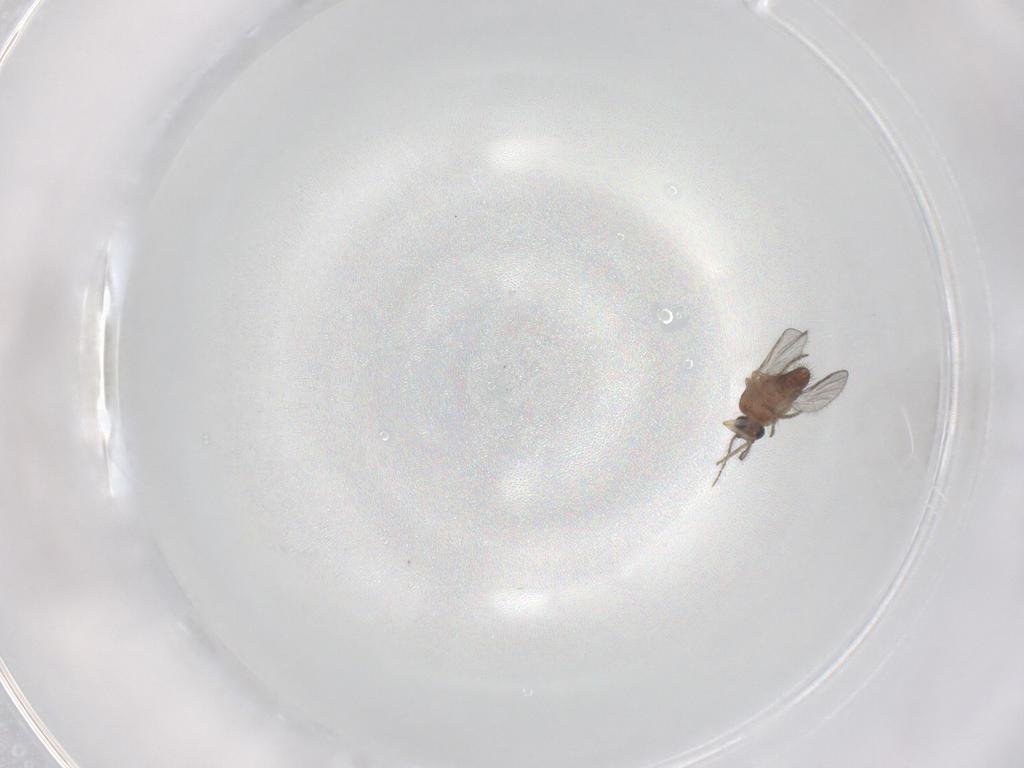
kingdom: Animalia
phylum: Arthropoda
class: Insecta
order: Diptera
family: Ceratopogonidae
